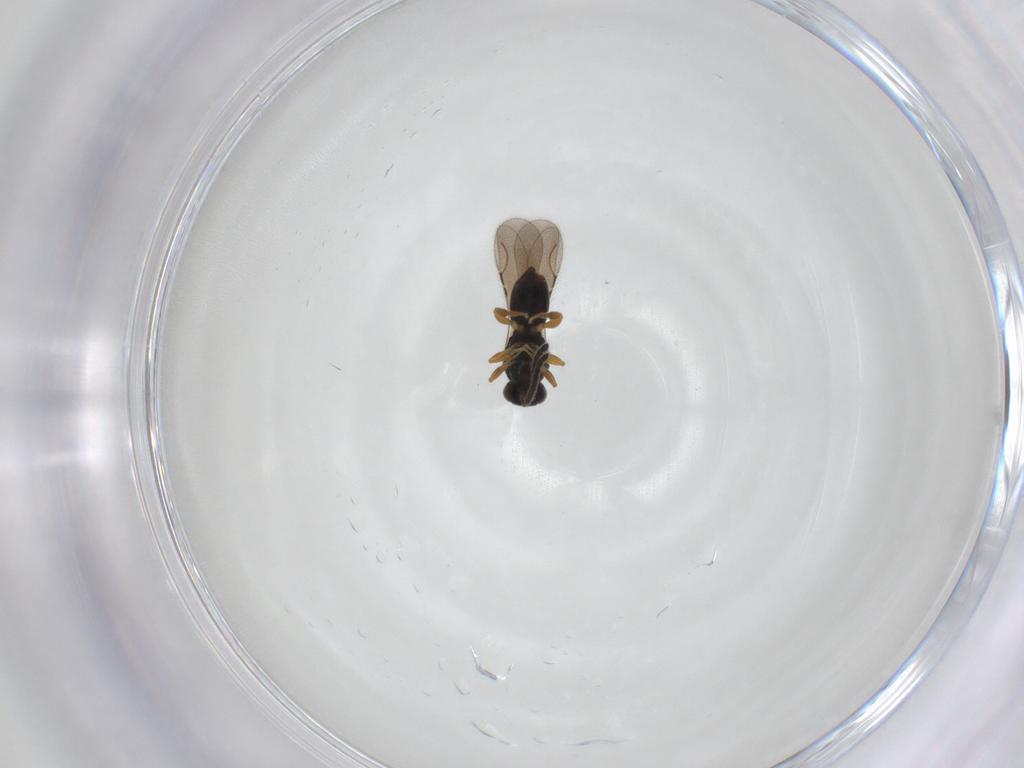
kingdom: Animalia
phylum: Arthropoda
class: Insecta
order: Hymenoptera
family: Ceraphronidae
